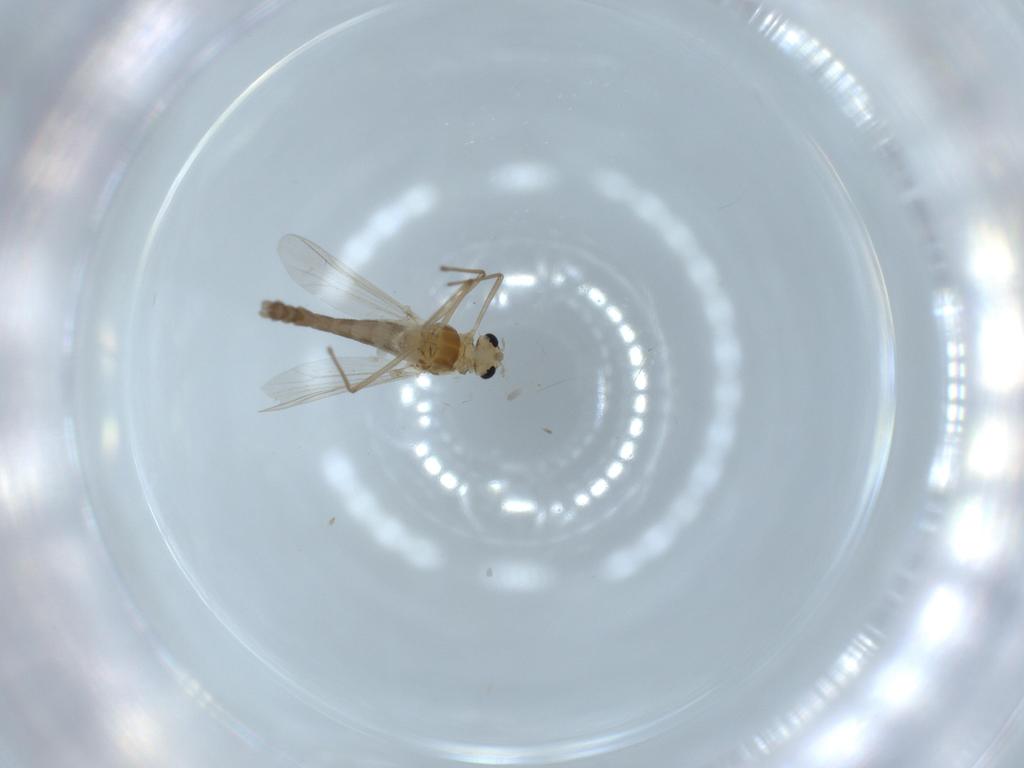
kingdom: Animalia
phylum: Arthropoda
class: Insecta
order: Diptera
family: Chironomidae
